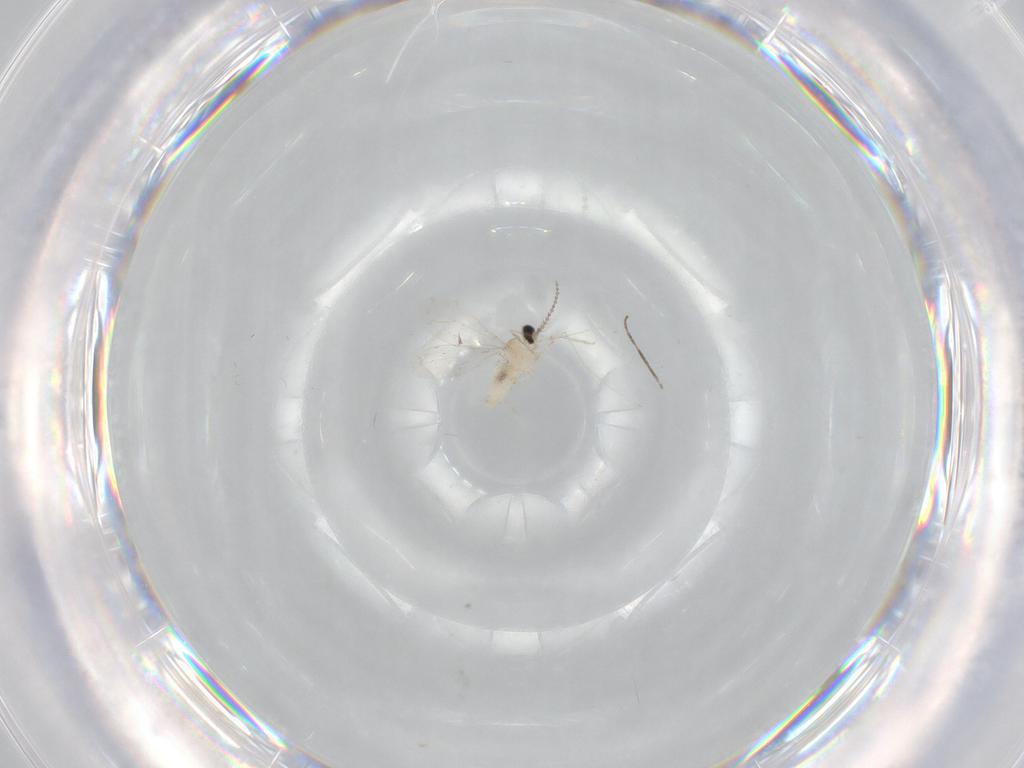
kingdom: Animalia
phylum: Arthropoda
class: Insecta
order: Diptera
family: Cecidomyiidae
